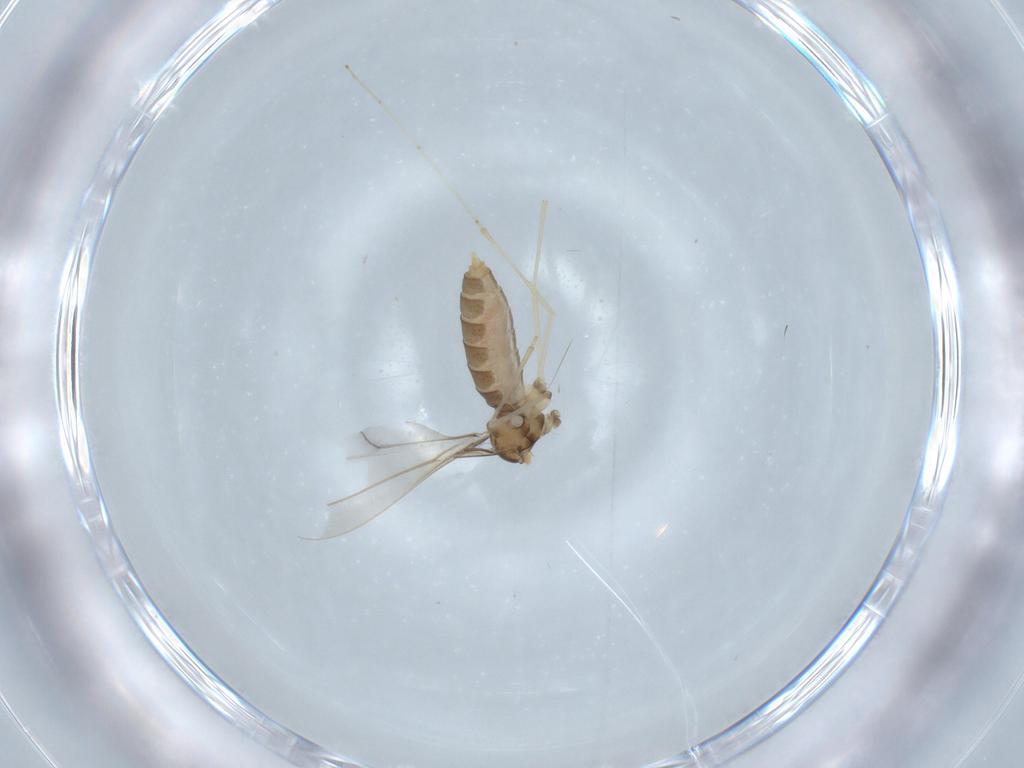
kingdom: Animalia
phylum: Arthropoda
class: Insecta
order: Diptera
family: Cecidomyiidae
